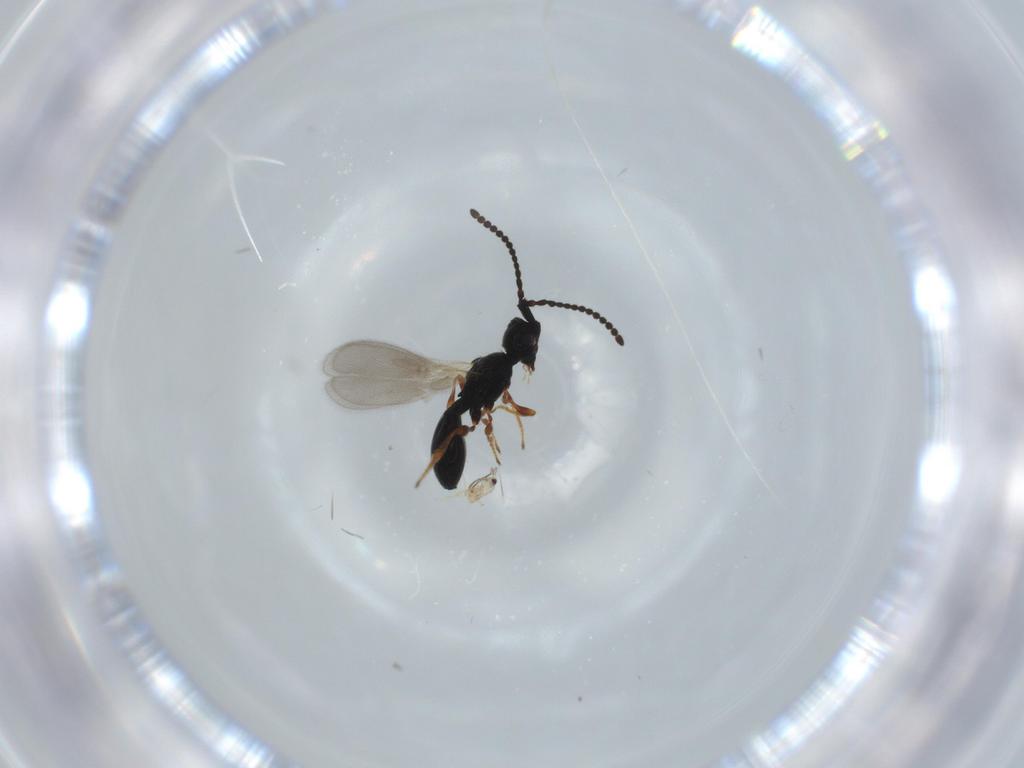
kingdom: Animalia
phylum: Arthropoda
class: Insecta
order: Hymenoptera
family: Diapriidae
